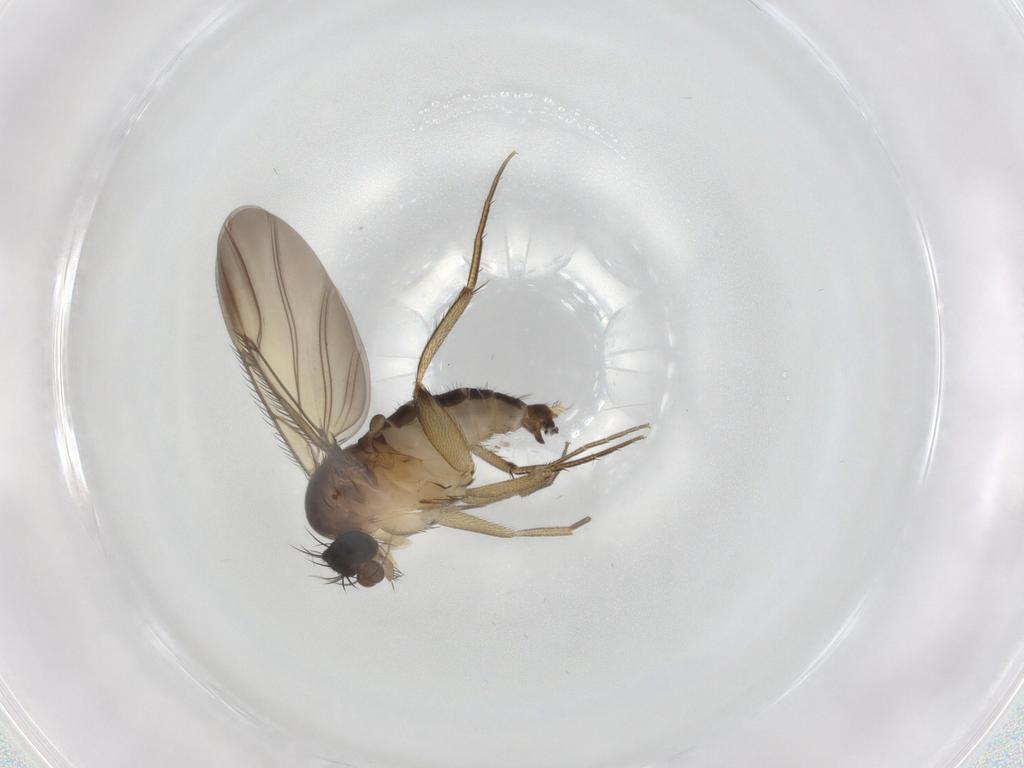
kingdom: Animalia
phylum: Arthropoda
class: Insecta
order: Diptera
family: Phoridae
